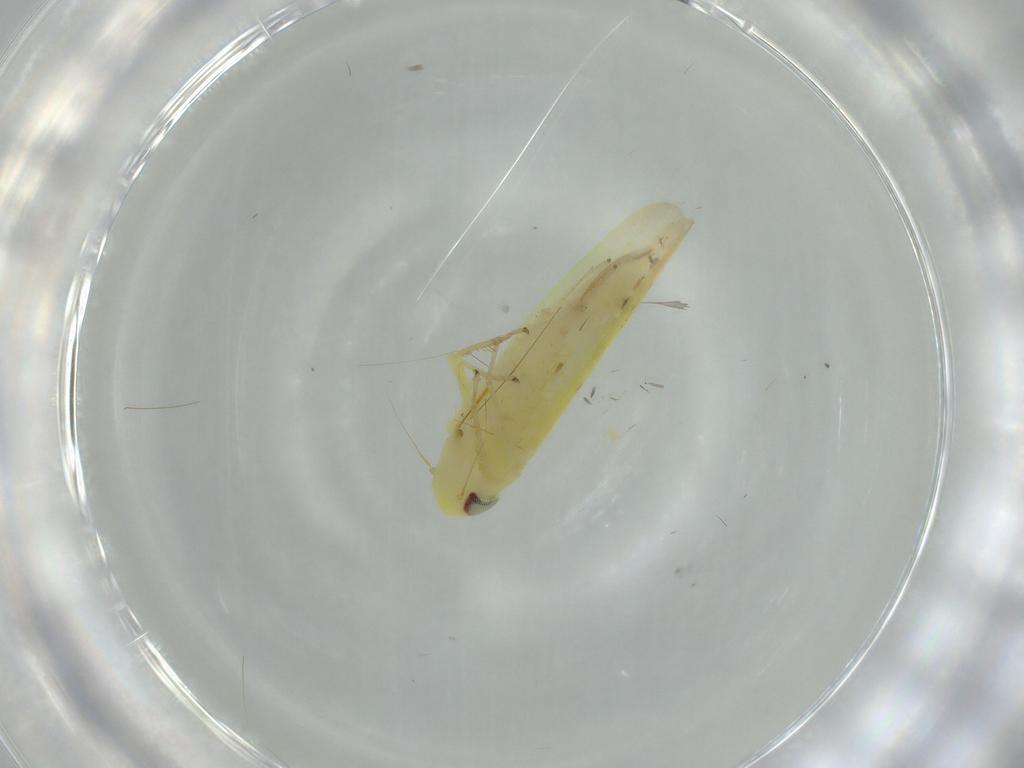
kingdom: Animalia
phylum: Arthropoda
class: Insecta
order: Hemiptera
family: Cicadellidae
